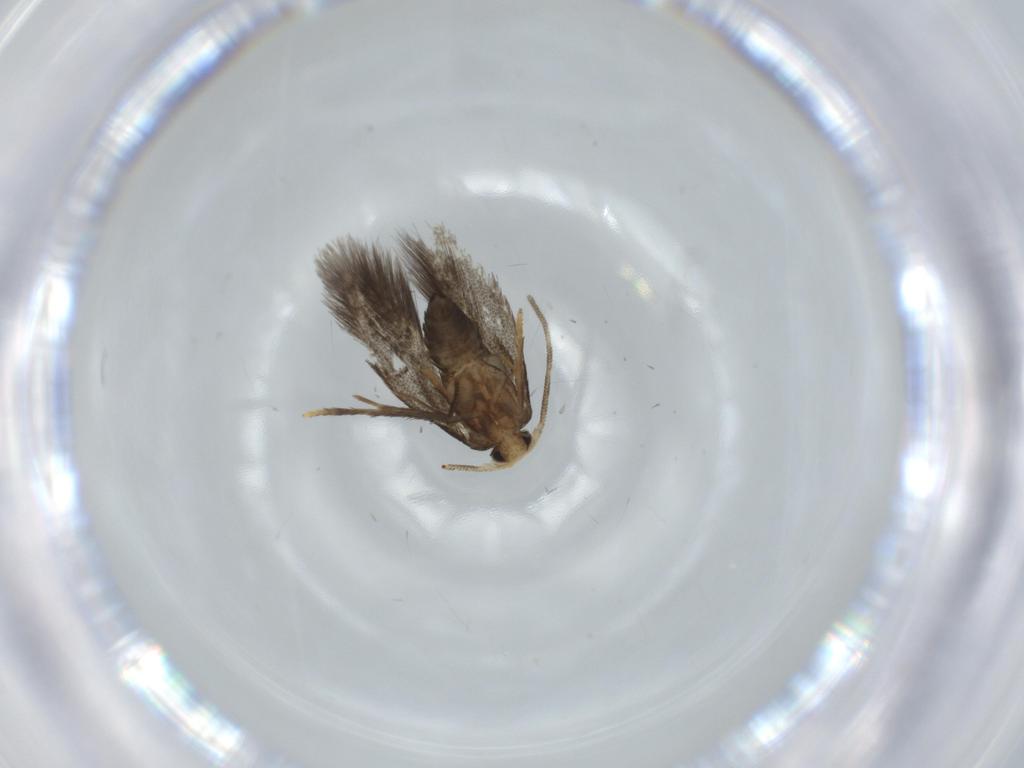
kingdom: Animalia
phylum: Arthropoda
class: Insecta
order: Lepidoptera
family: Nepticulidae
